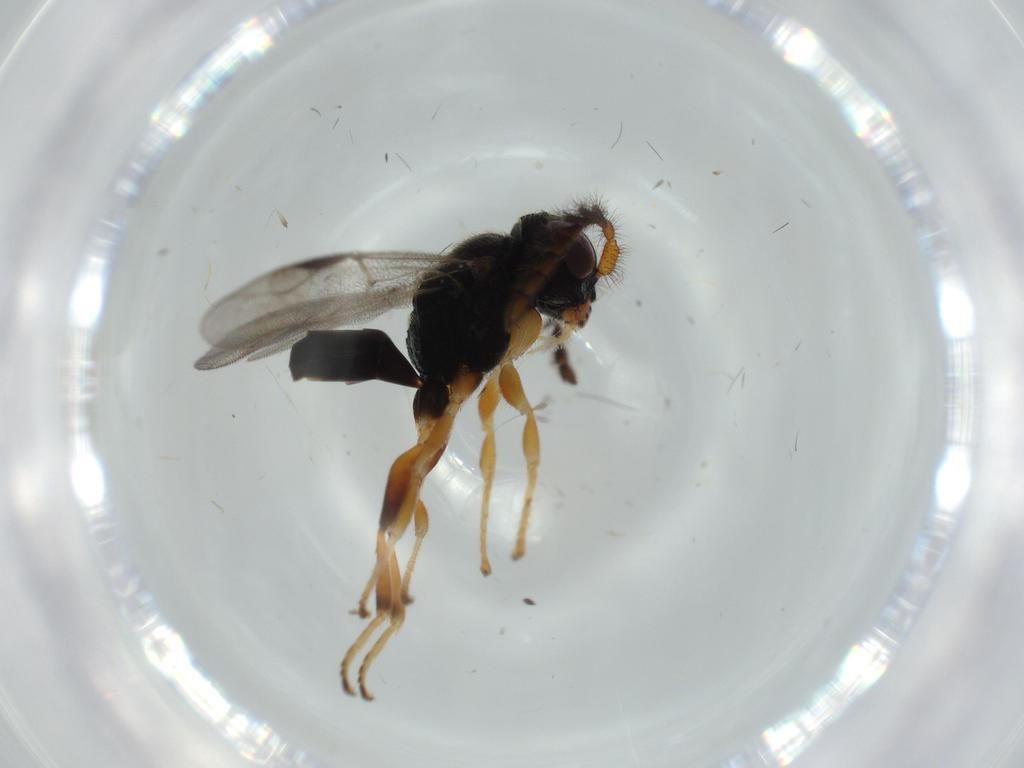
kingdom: Animalia
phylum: Arthropoda
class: Insecta
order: Hymenoptera
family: Dryinidae
